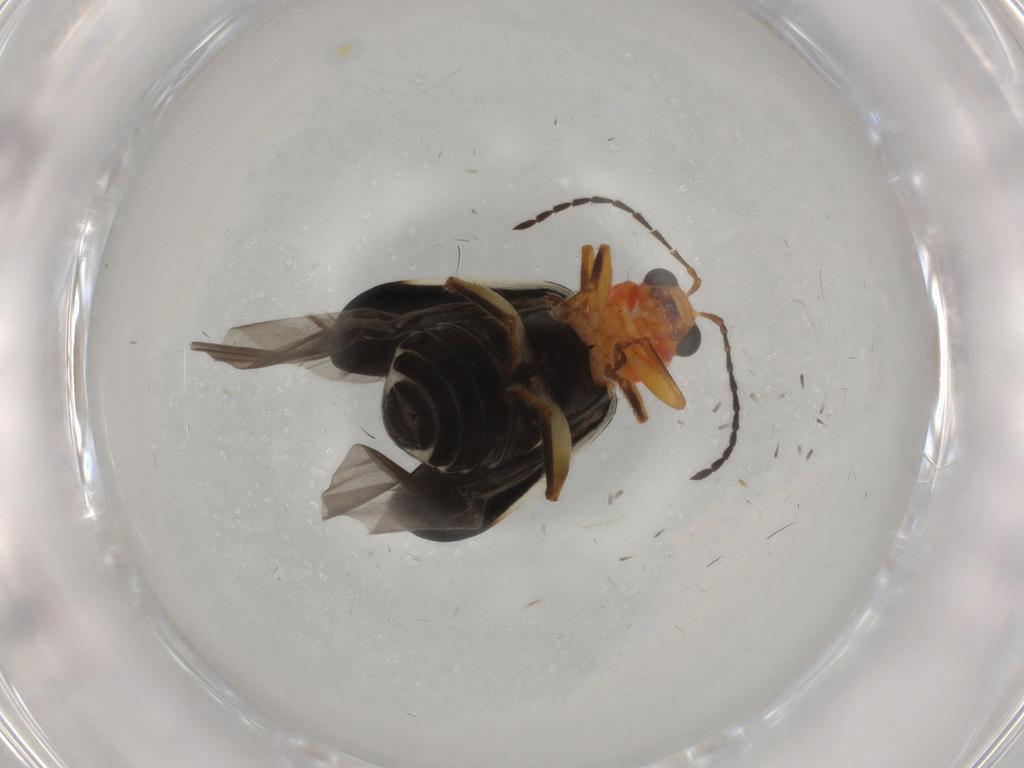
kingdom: Animalia
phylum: Arthropoda
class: Insecta
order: Coleoptera
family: Chrysomelidae
